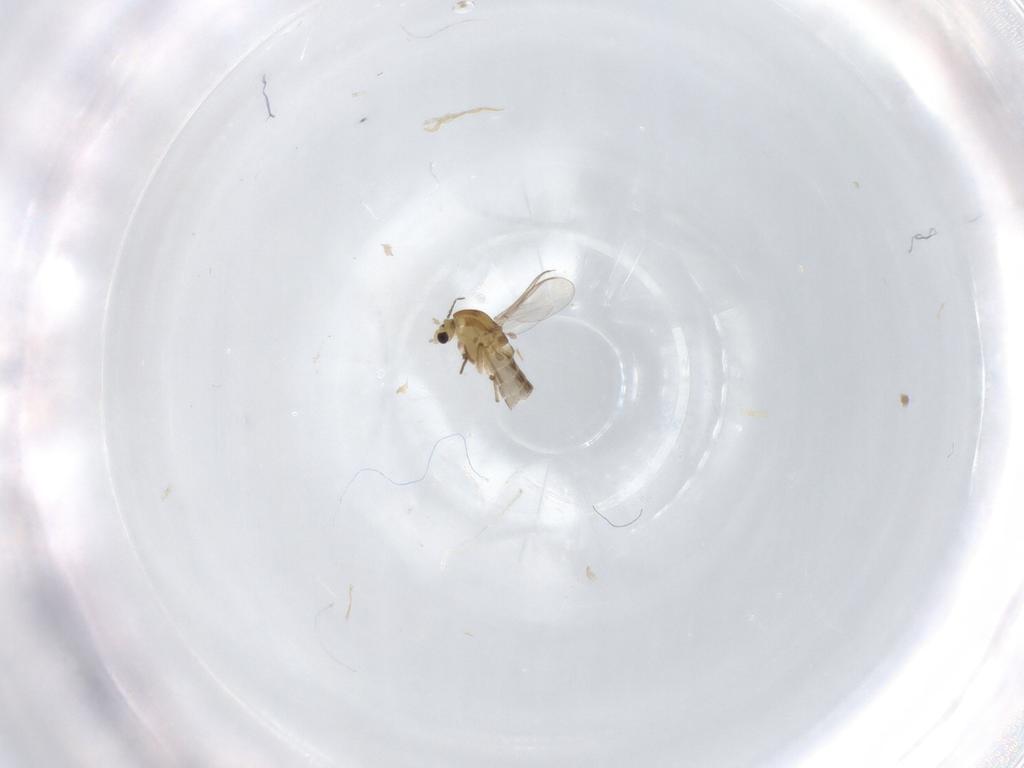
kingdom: Animalia
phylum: Arthropoda
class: Insecta
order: Diptera
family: Chironomidae
